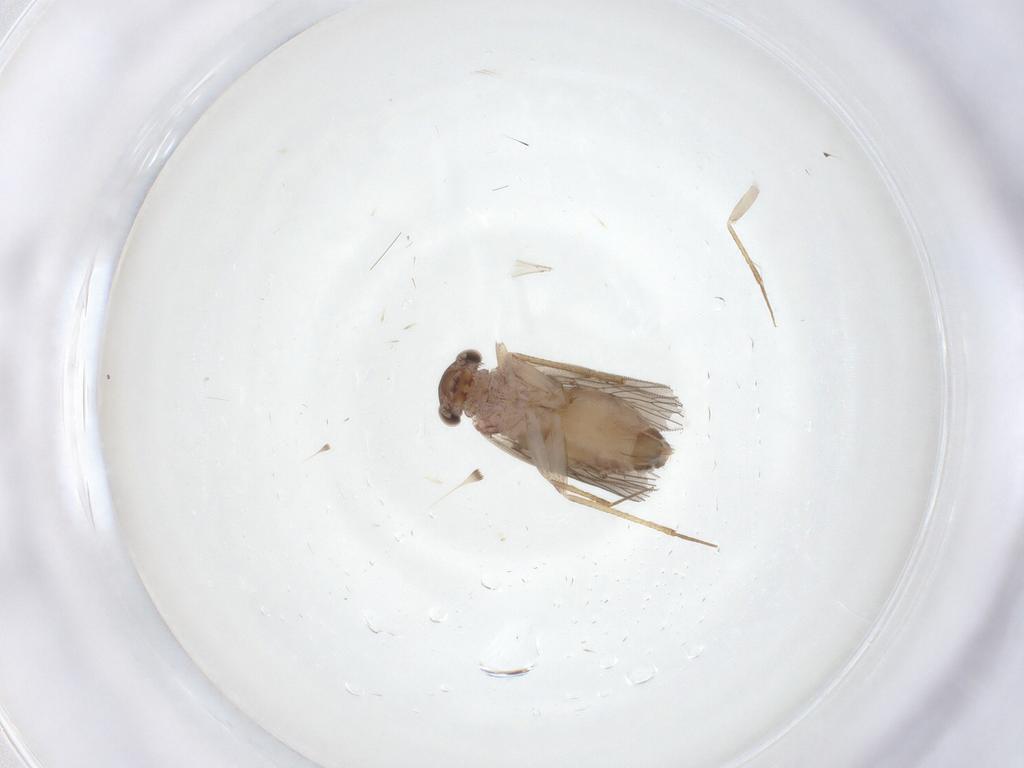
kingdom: Animalia
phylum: Arthropoda
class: Insecta
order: Psocodea
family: Lepidopsocidae
